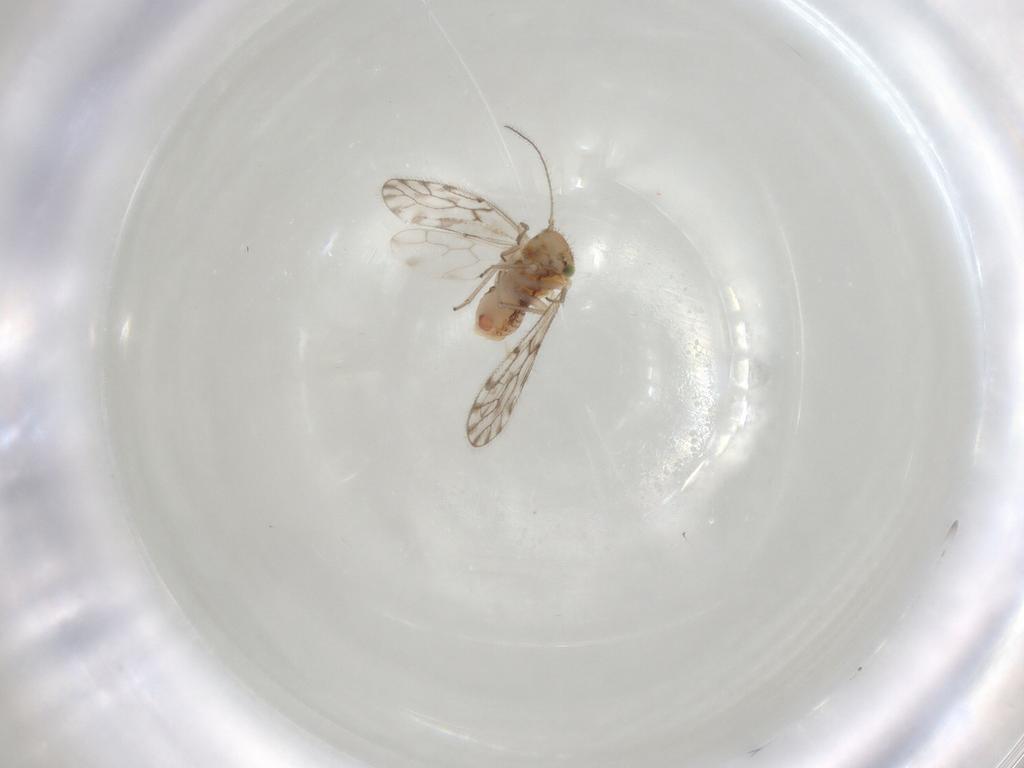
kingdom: Animalia
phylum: Arthropoda
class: Insecta
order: Psocodea
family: Trichopsocidae
